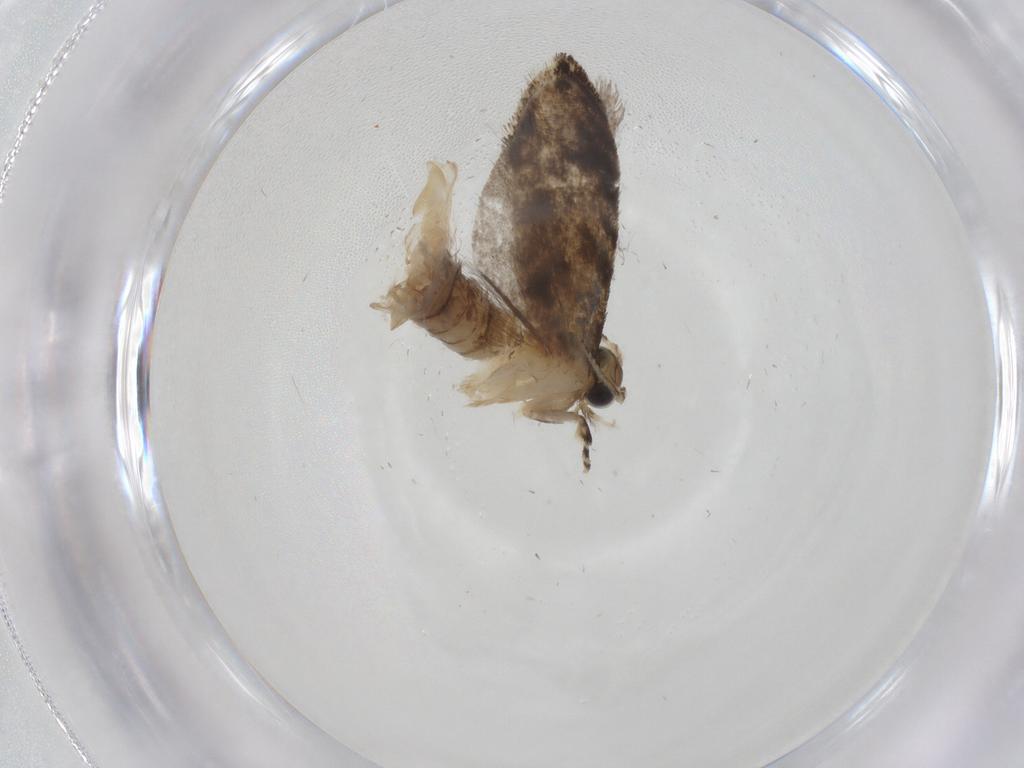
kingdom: Animalia
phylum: Arthropoda
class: Insecta
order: Lepidoptera
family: Tineidae
